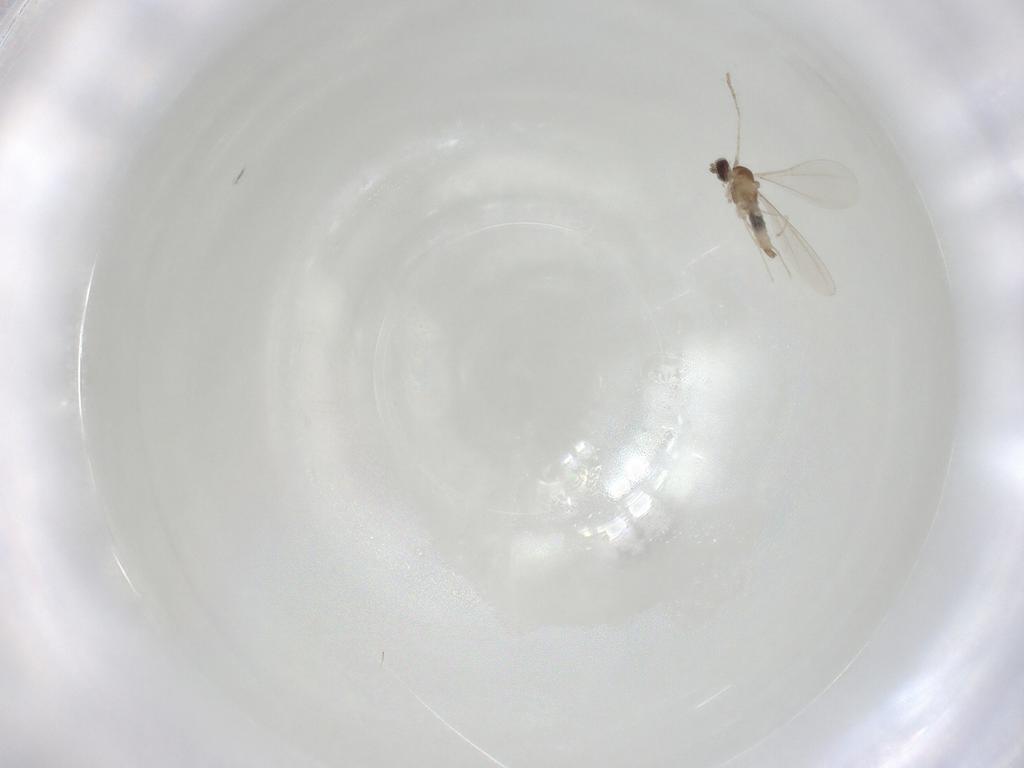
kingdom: Animalia
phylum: Arthropoda
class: Insecta
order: Diptera
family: Cecidomyiidae
